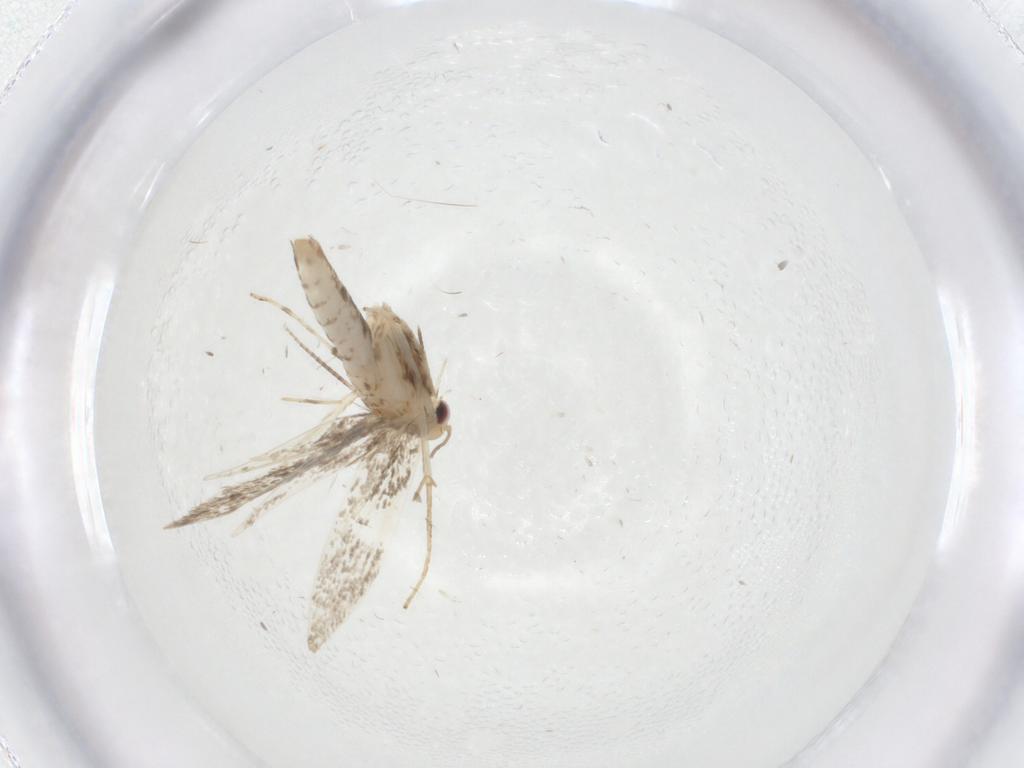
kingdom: Animalia
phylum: Arthropoda
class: Insecta
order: Lepidoptera
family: Gracillariidae
